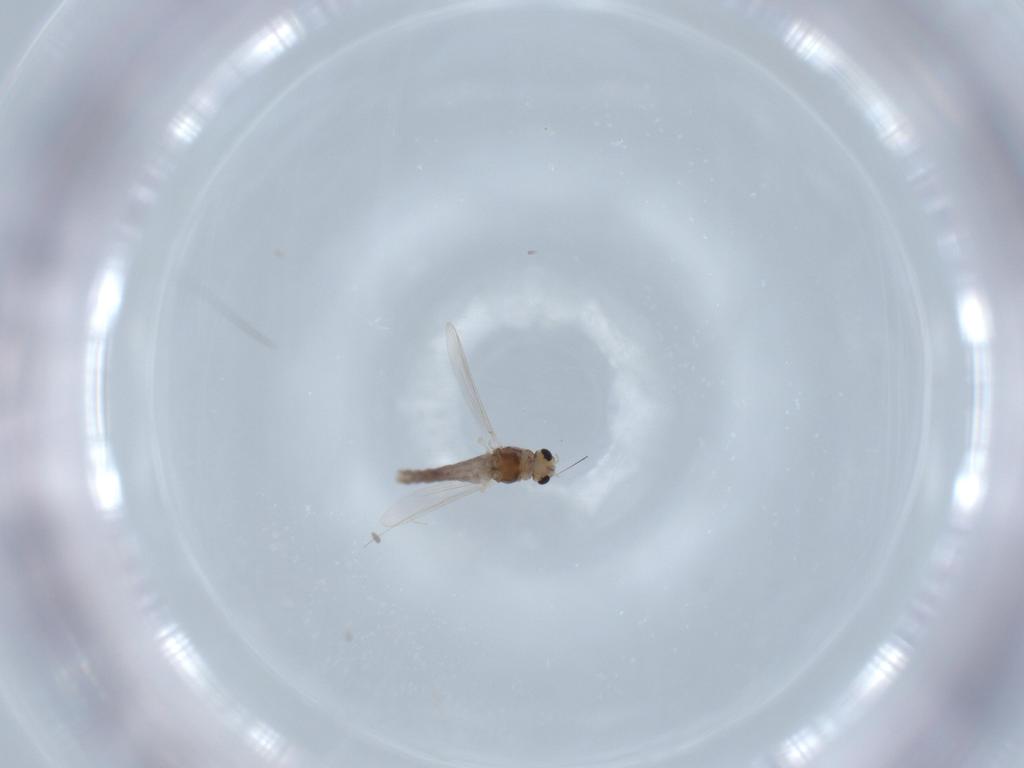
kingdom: Animalia
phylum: Arthropoda
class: Insecta
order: Diptera
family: Chironomidae
